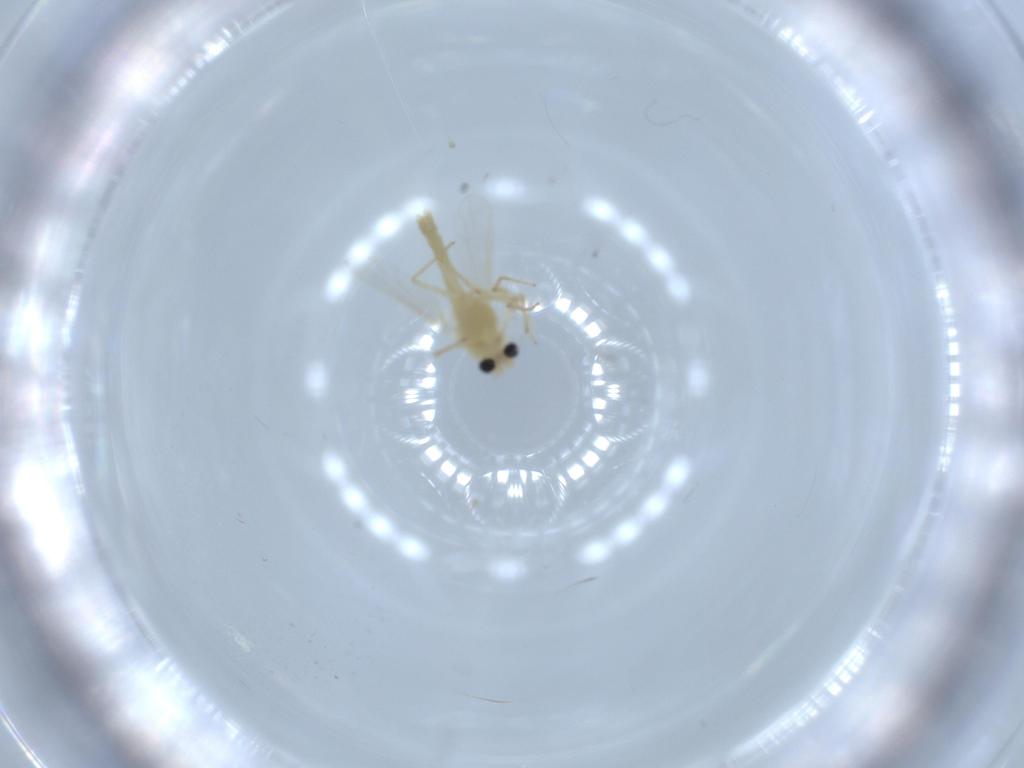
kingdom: Animalia
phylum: Arthropoda
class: Insecta
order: Diptera
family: Chironomidae
